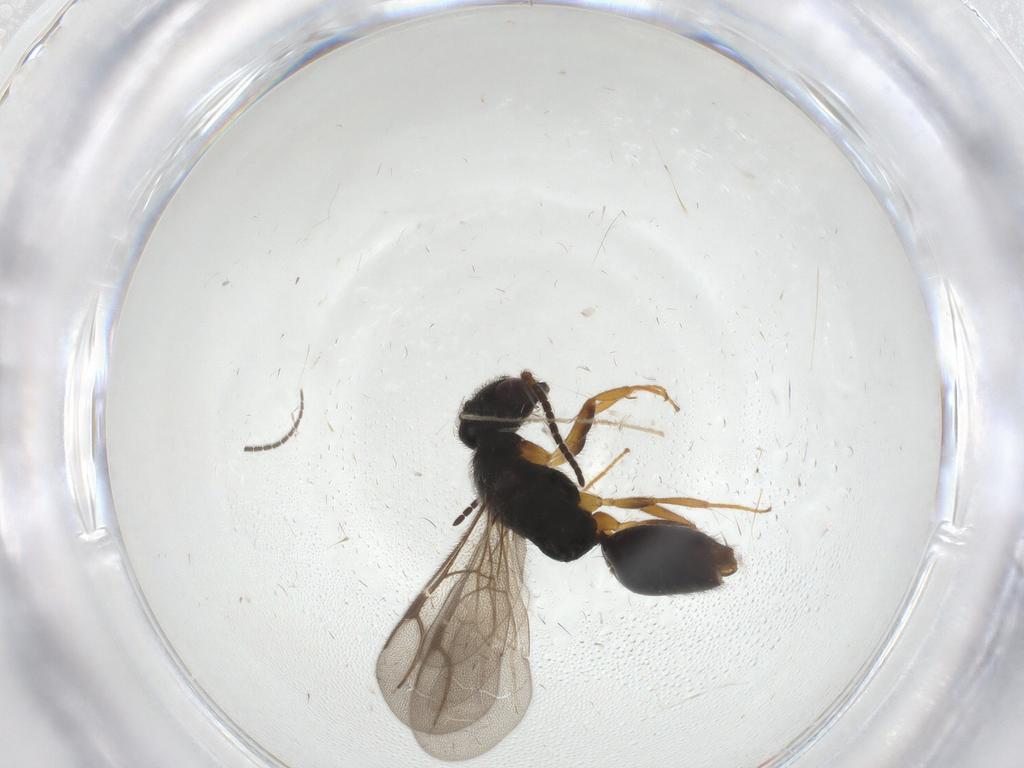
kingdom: Animalia
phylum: Arthropoda
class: Insecta
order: Hymenoptera
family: Bethylidae
